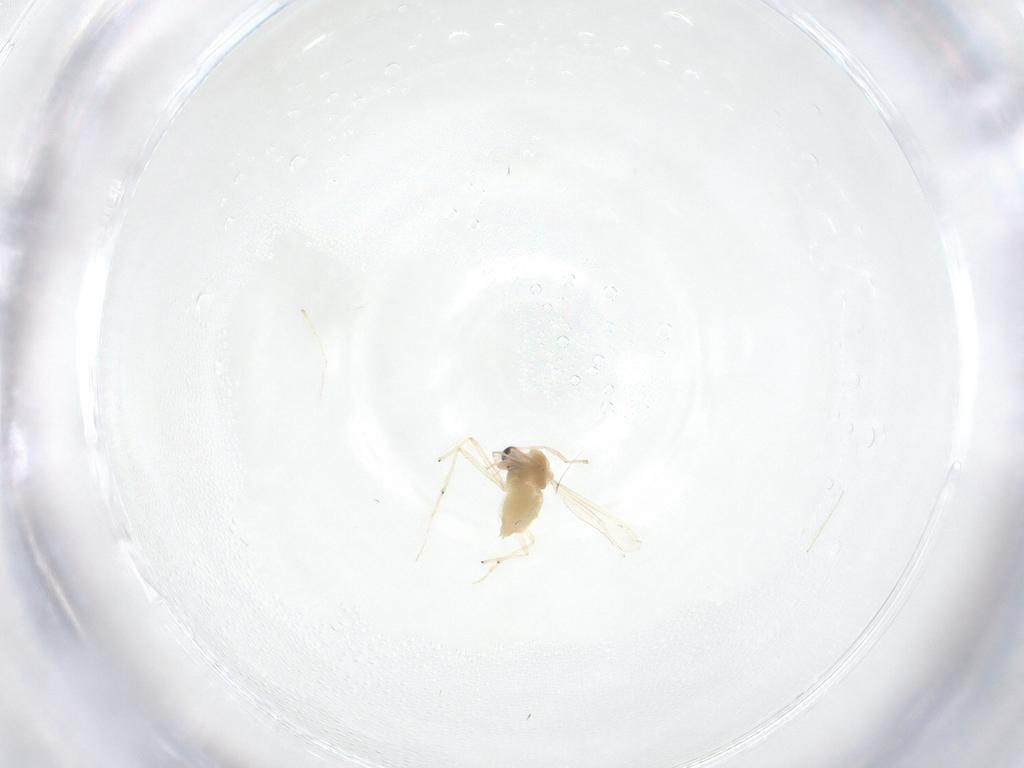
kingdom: Animalia
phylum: Arthropoda
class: Insecta
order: Diptera
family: Chironomidae
